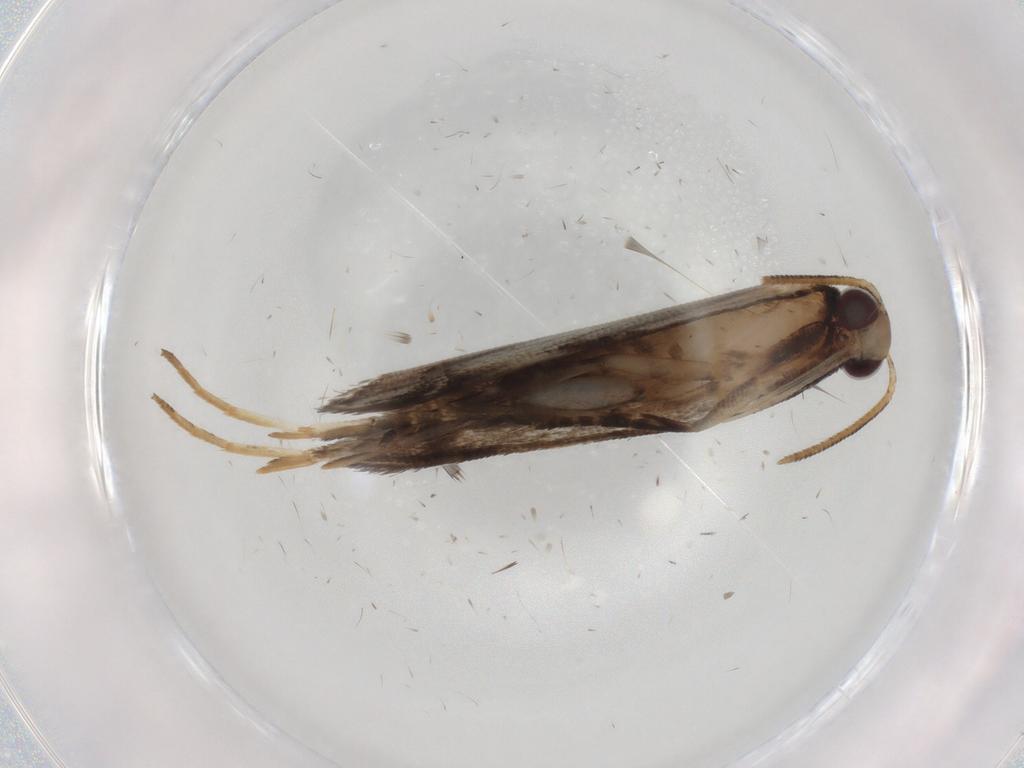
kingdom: Animalia
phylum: Arthropoda
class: Insecta
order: Lepidoptera
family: Gelechiidae
